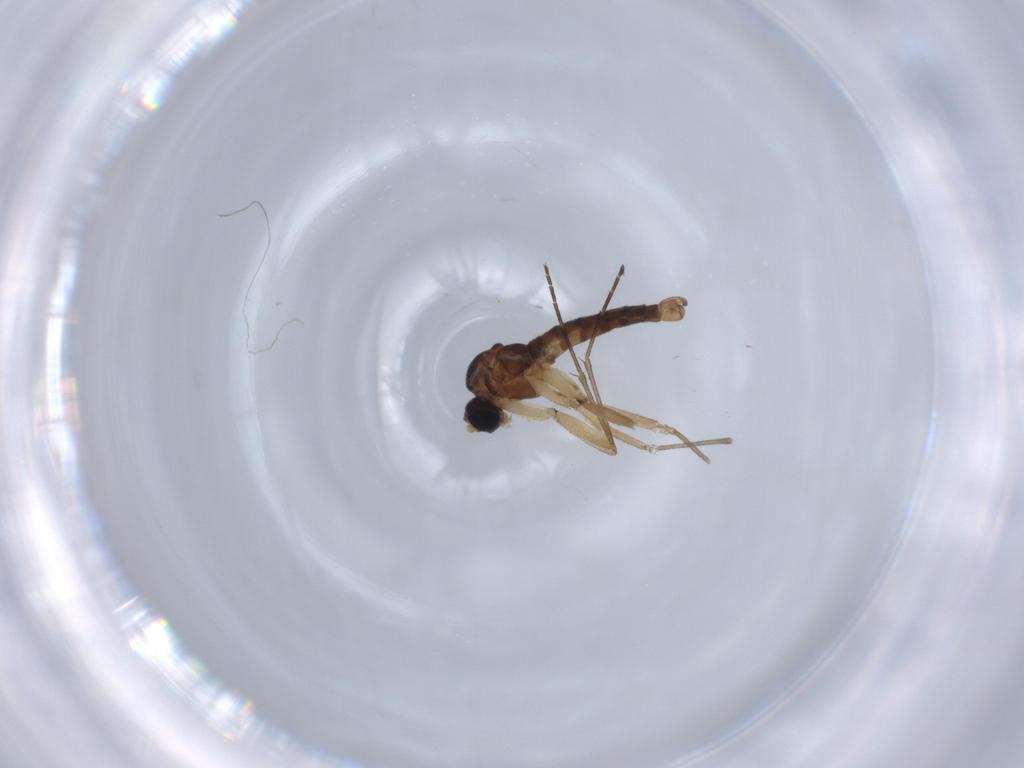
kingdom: Animalia
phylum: Arthropoda
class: Insecta
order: Diptera
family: Sciaridae
